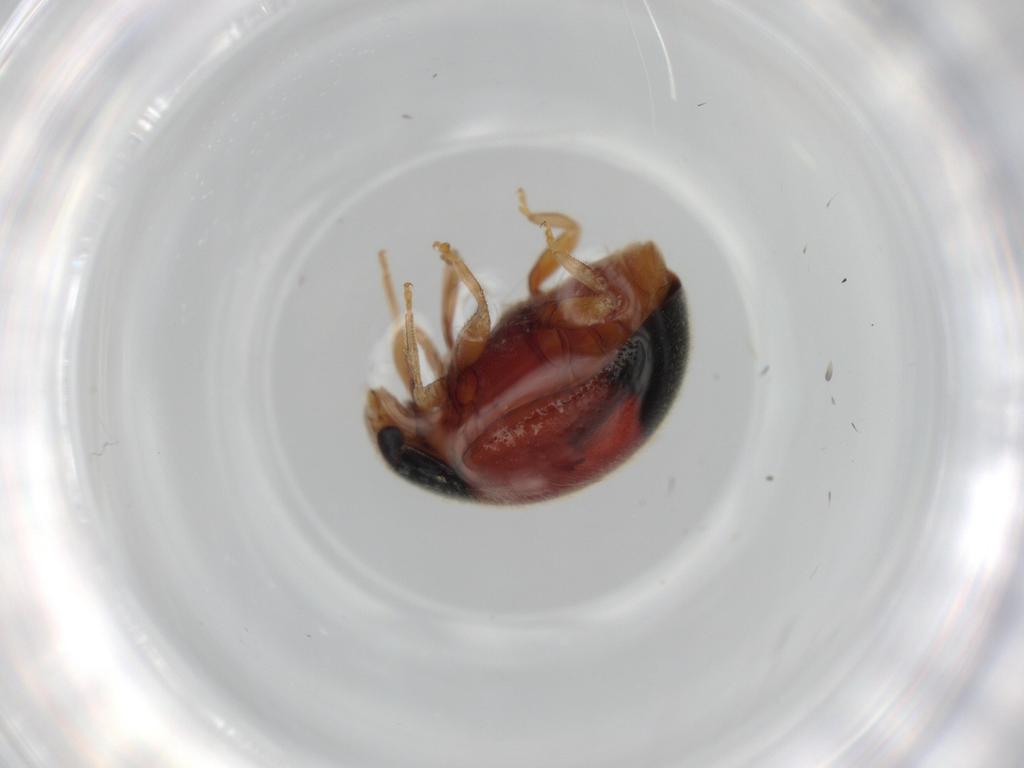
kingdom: Animalia
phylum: Arthropoda
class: Insecta
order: Coleoptera
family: Coccinellidae
